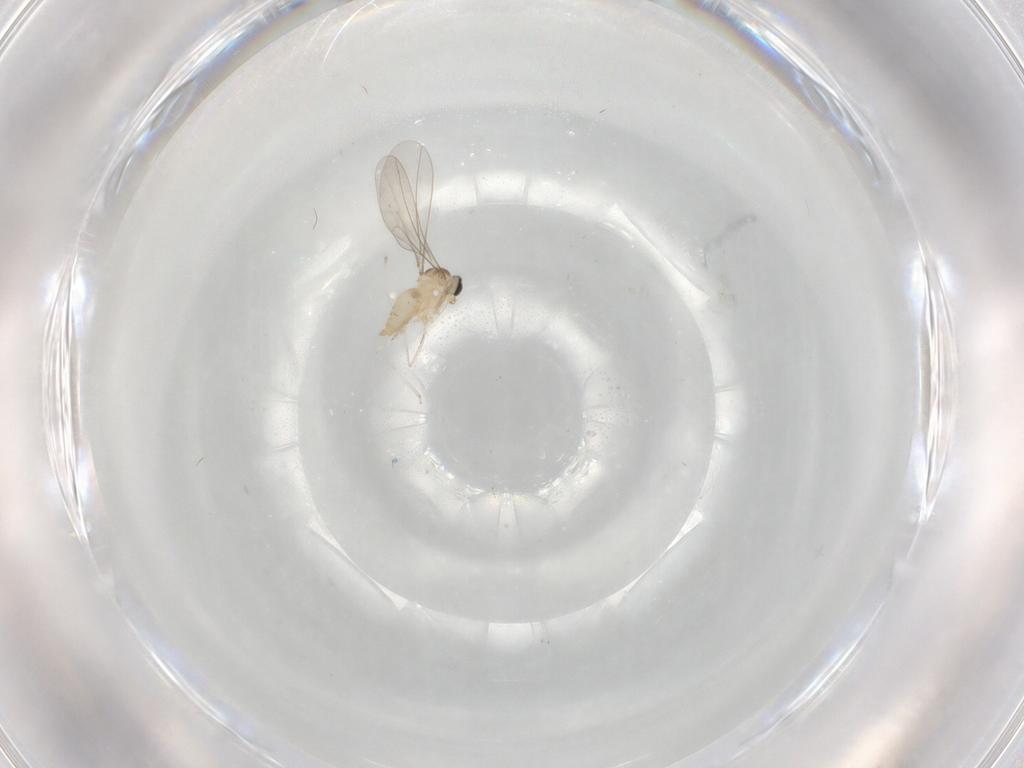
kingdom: Animalia
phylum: Arthropoda
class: Insecta
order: Diptera
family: Cecidomyiidae
